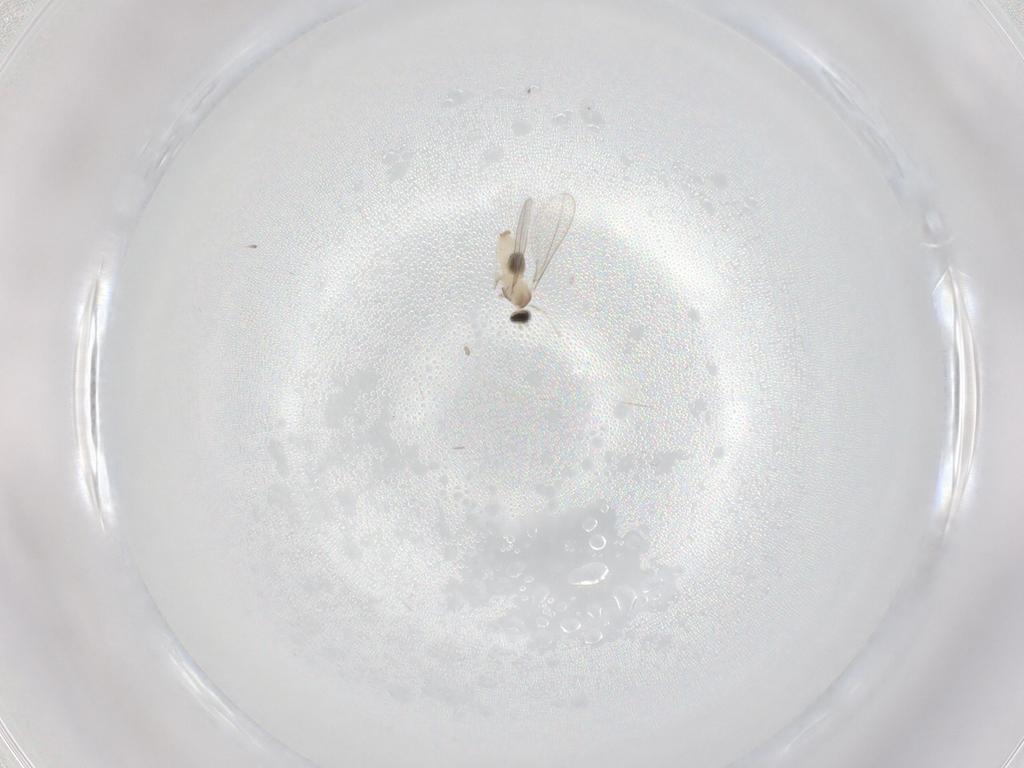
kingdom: Animalia
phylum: Arthropoda
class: Insecta
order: Diptera
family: Cecidomyiidae
